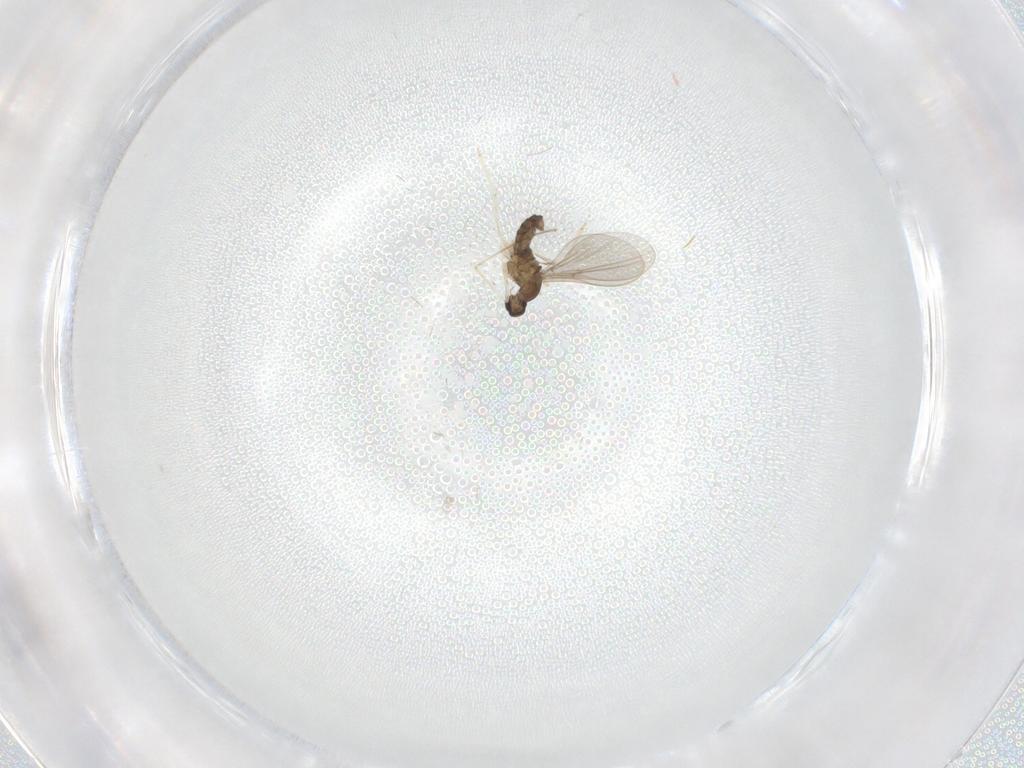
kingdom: Animalia
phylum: Arthropoda
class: Insecta
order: Diptera
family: Cecidomyiidae
